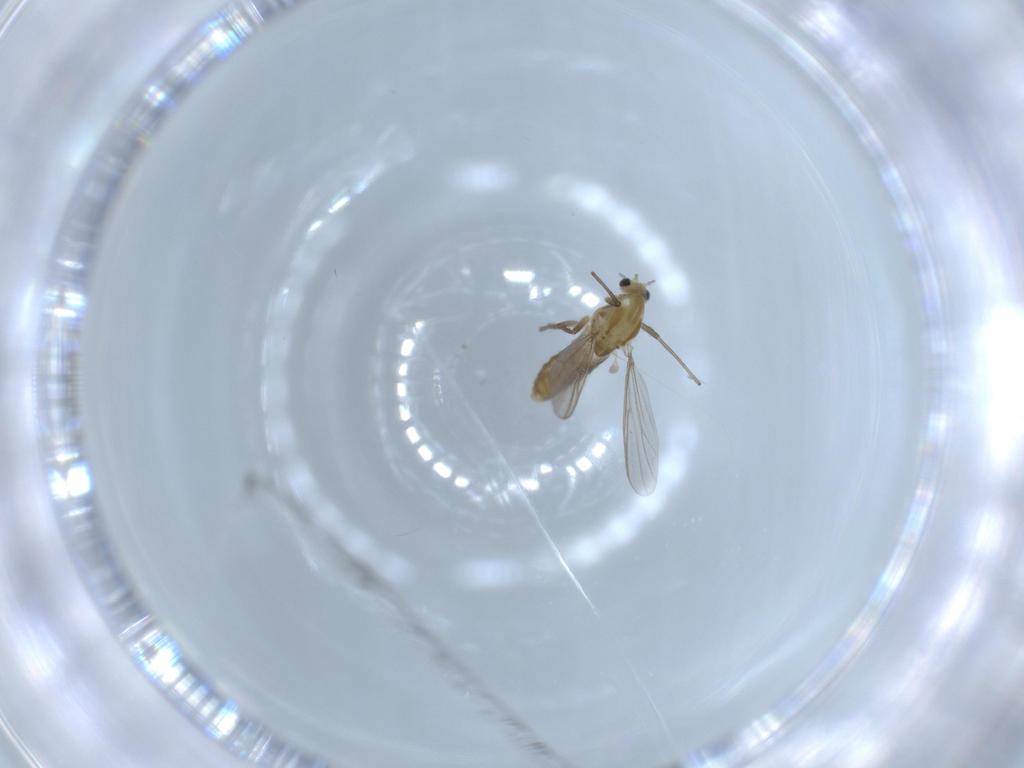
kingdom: Animalia
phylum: Arthropoda
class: Insecta
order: Diptera
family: Chironomidae
